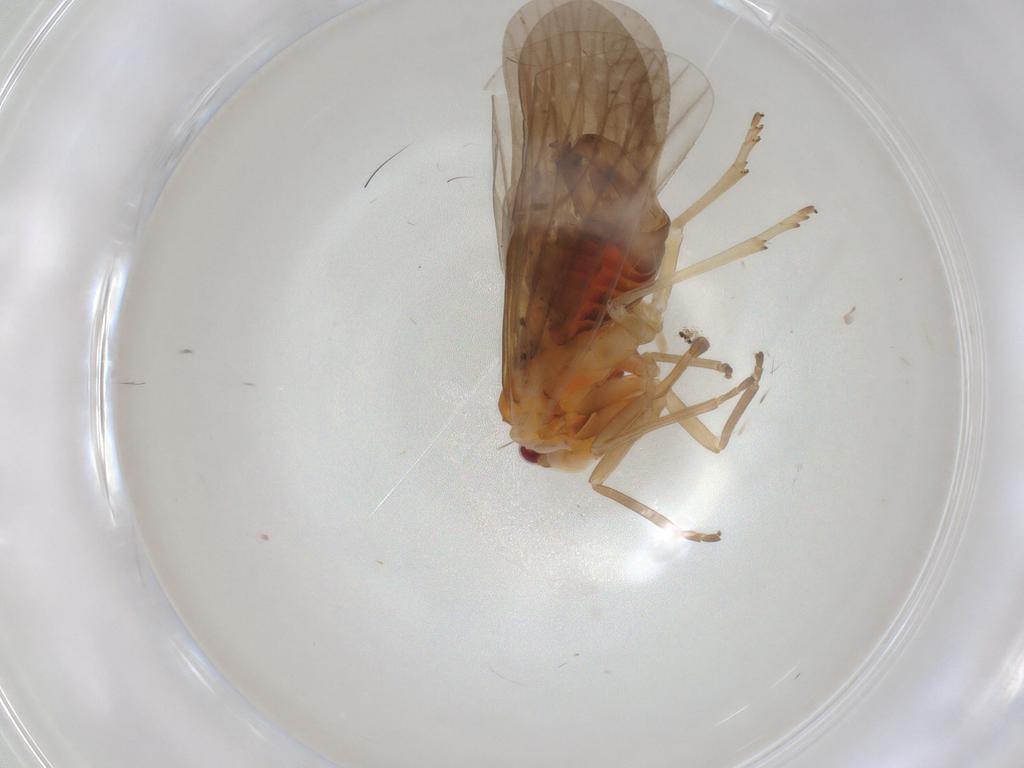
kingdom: Animalia
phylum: Arthropoda
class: Insecta
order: Hemiptera
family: Derbidae
